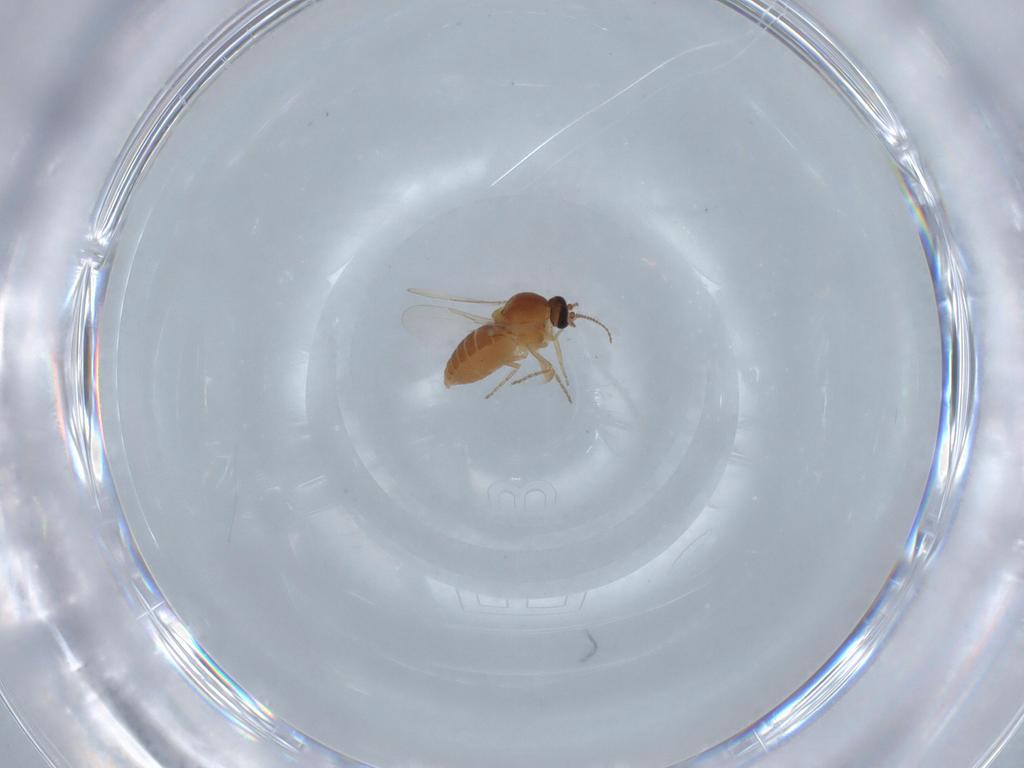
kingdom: Animalia
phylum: Arthropoda
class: Insecta
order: Diptera
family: Ceratopogonidae
